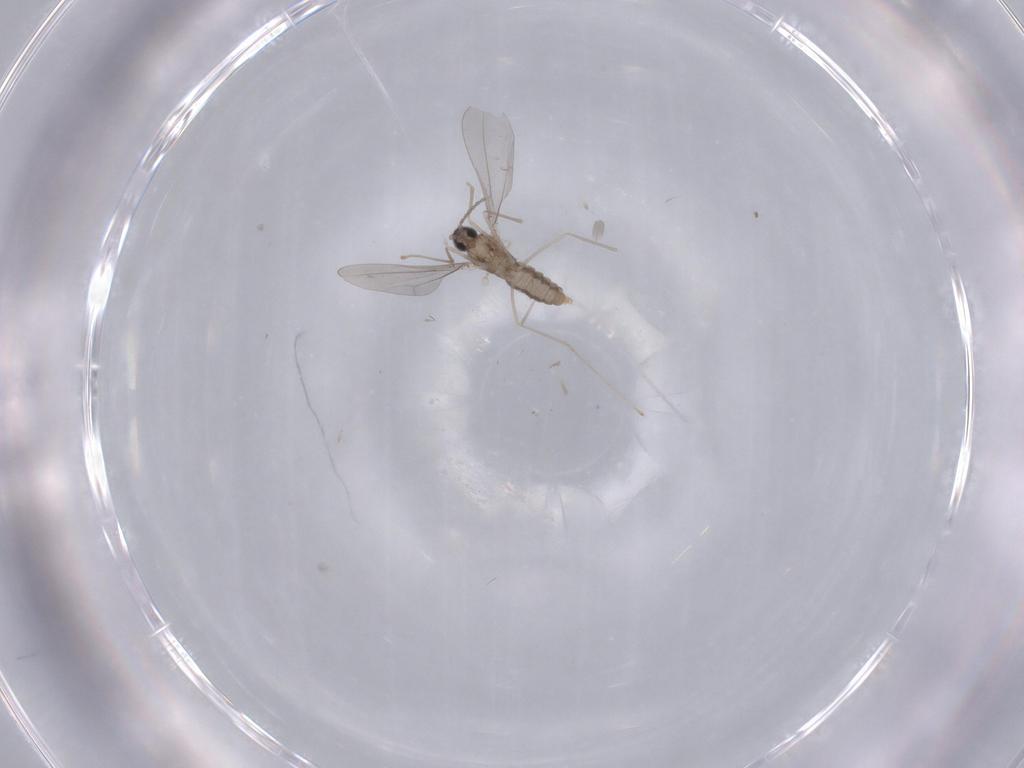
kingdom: Animalia
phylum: Arthropoda
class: Insecta
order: Diptera
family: Cecidomyiidae
